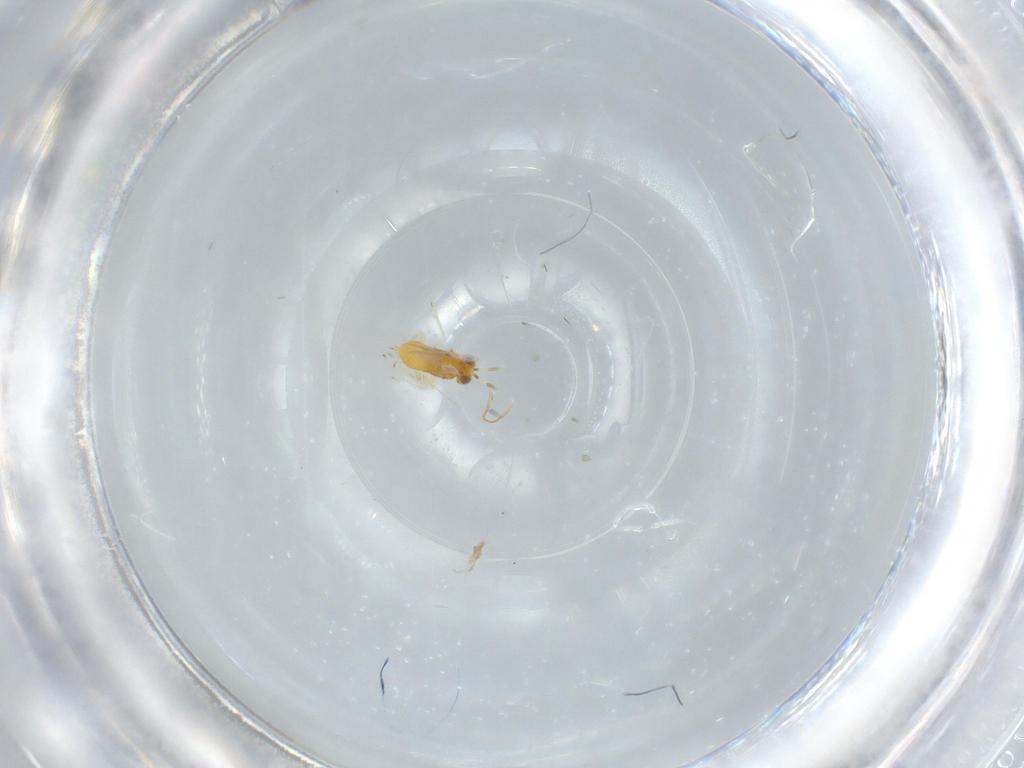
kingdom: Animalia
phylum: Arthropoda
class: Insecta
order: Hymenoptera
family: Aphelinidae
